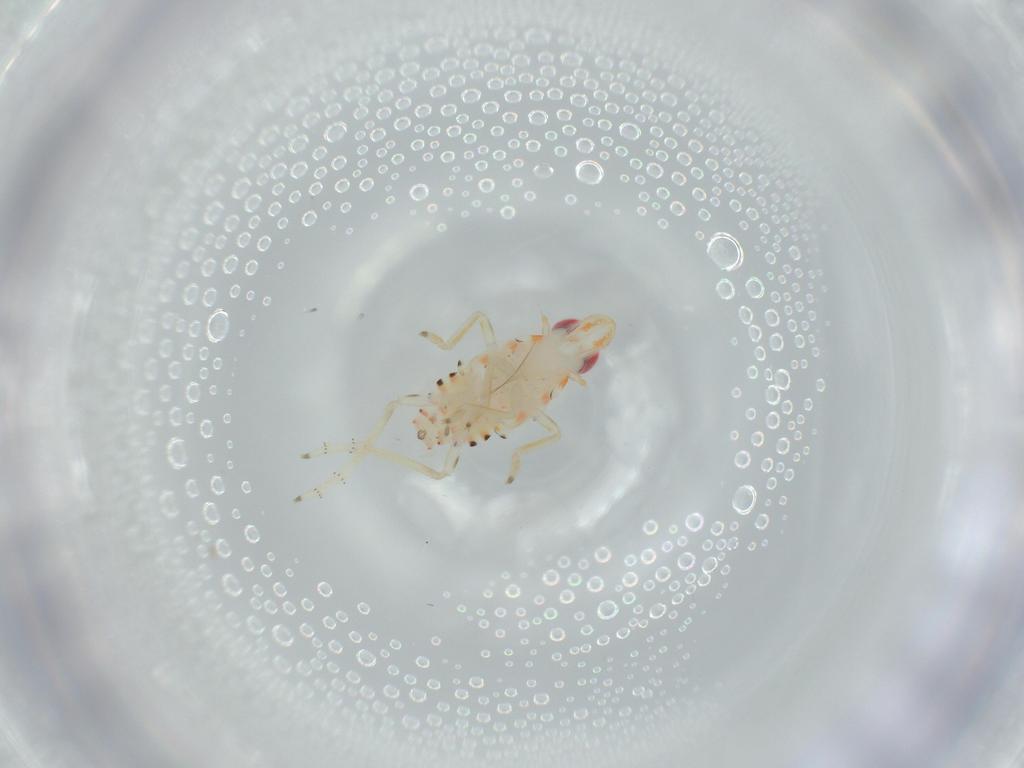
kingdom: Animalia
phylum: Arthropoda
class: Insecta
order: Hemiptera
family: Tropiduchidae
